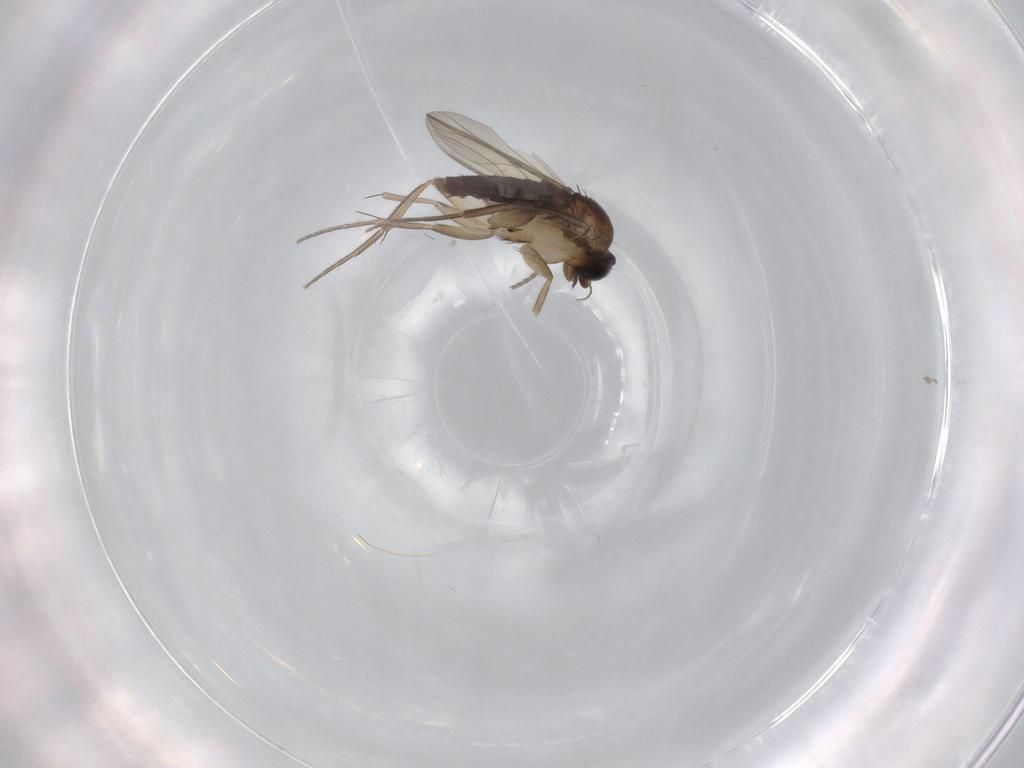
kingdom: Animalia
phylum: Arthropoda
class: Insecta
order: Diptera
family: Phoridae
